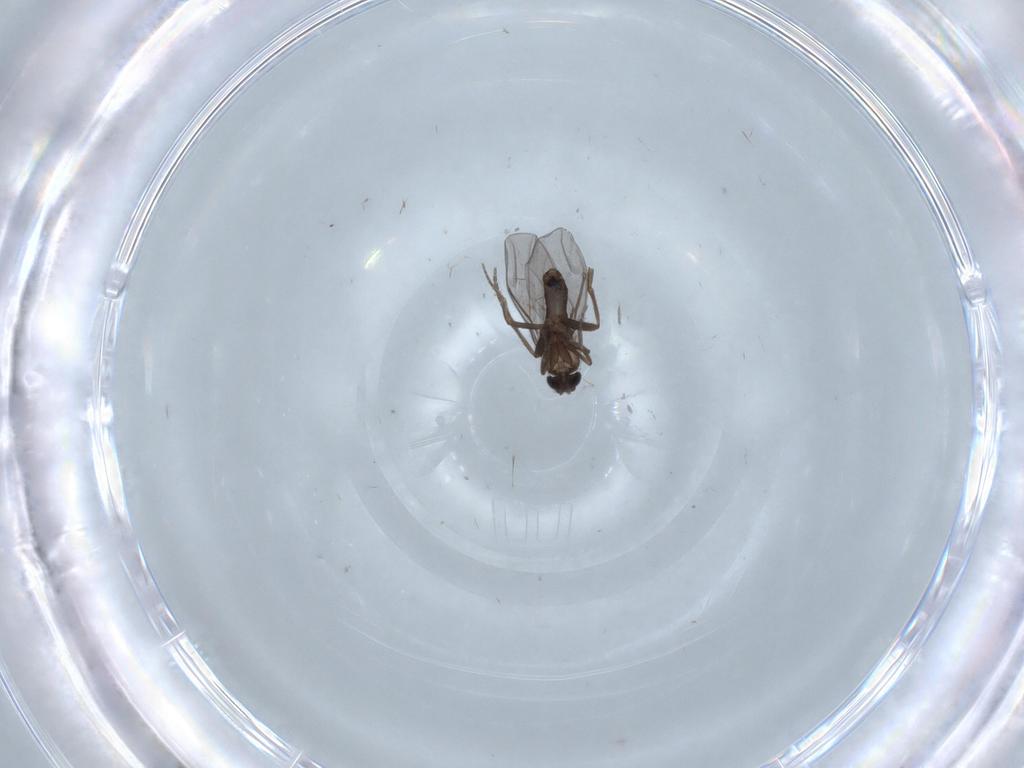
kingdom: Animalia
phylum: Arthropoda
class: Insecta
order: Diptera
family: Phoridae
